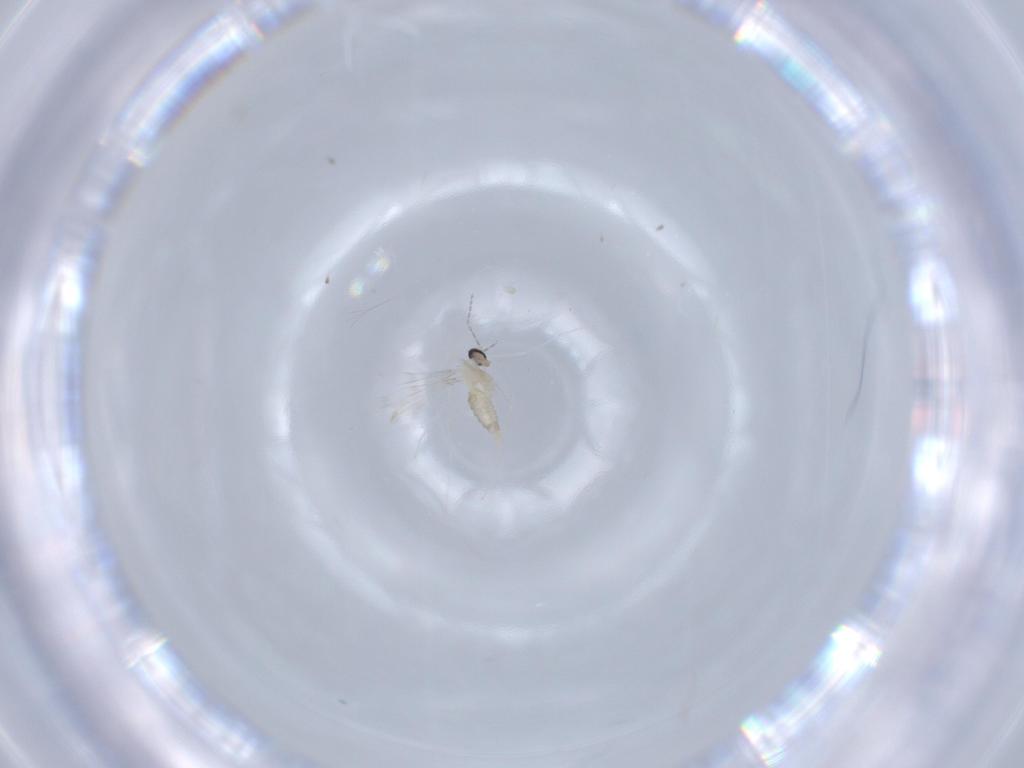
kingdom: Animalia
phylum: Arthropoda
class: Insecta
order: Diptera
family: Cecidomyiidae
